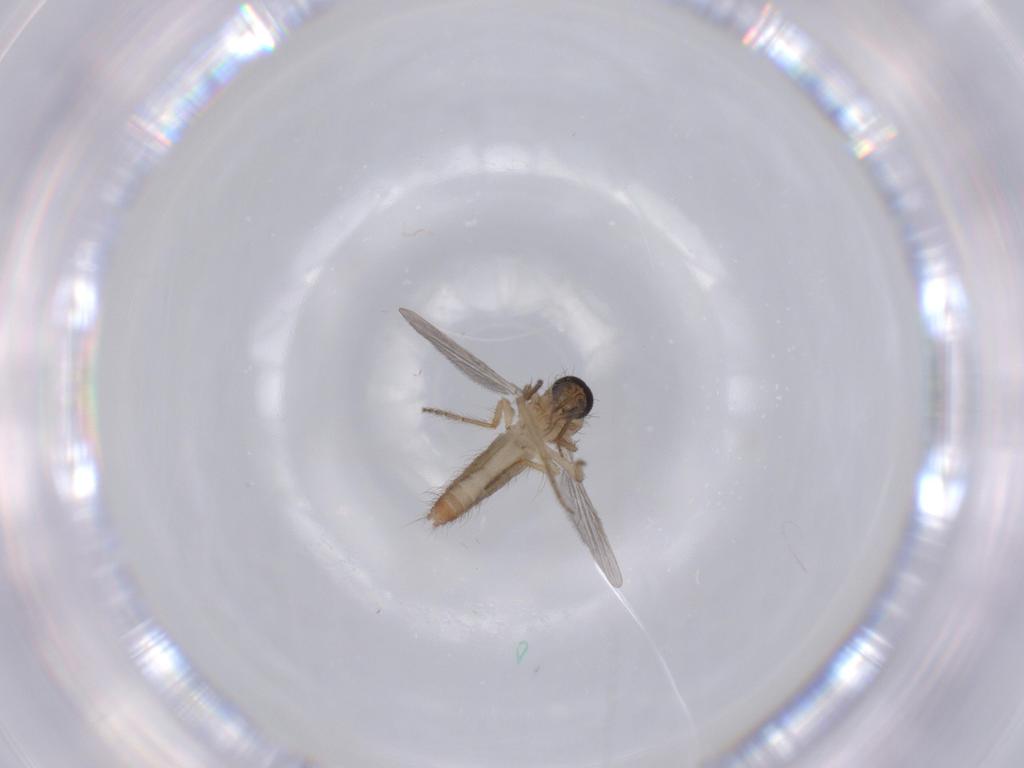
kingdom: Animalia
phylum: Arthropoda
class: Insecta
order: Diptera
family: Ceratopogonidae
